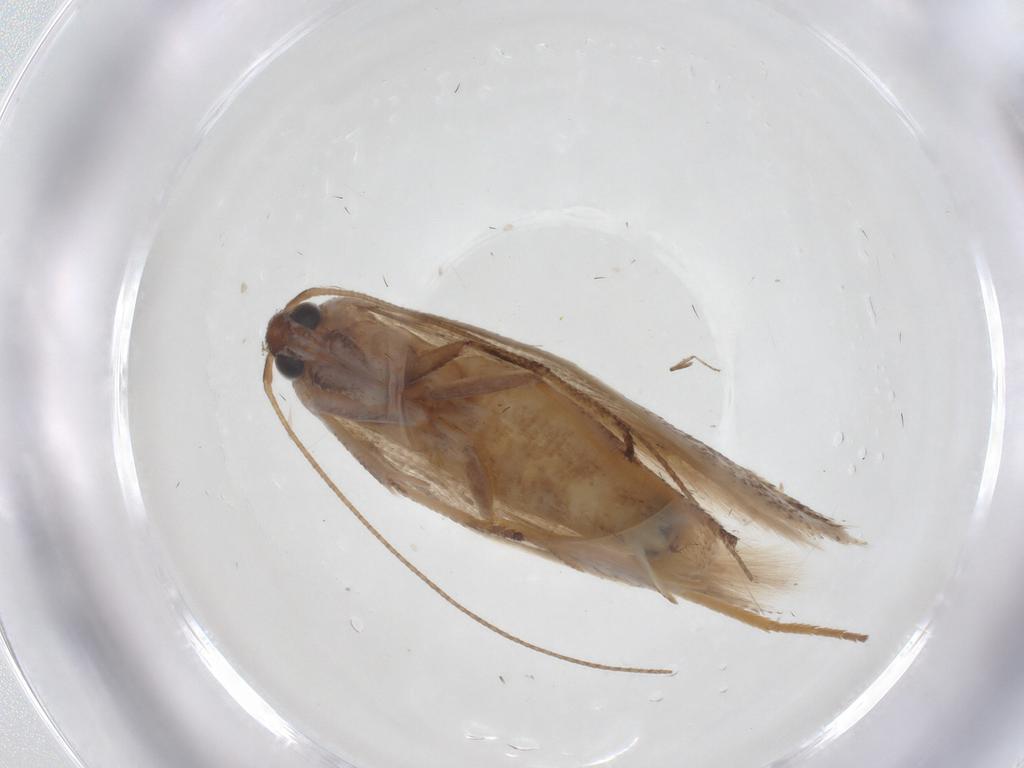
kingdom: Animalia
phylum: Arthropoda
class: Insecta
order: Lepidoptera
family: Gelechiidae
